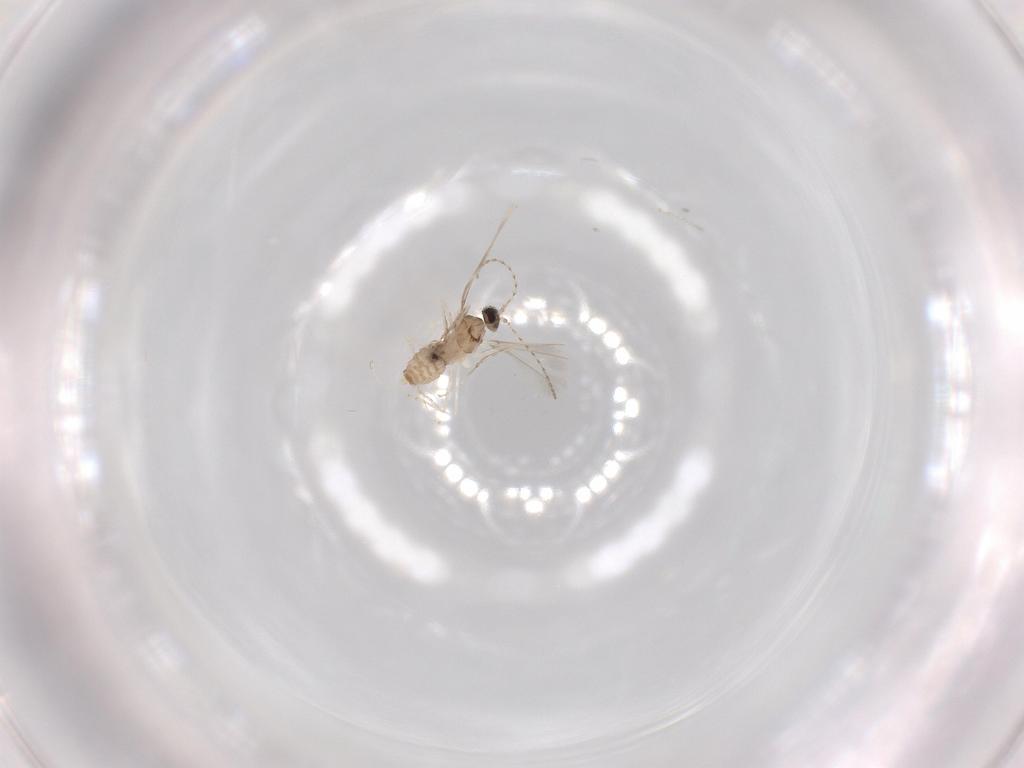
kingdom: Animalia
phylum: Arthropoda
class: Insecta
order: Diptera
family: Cecidomyiidae
